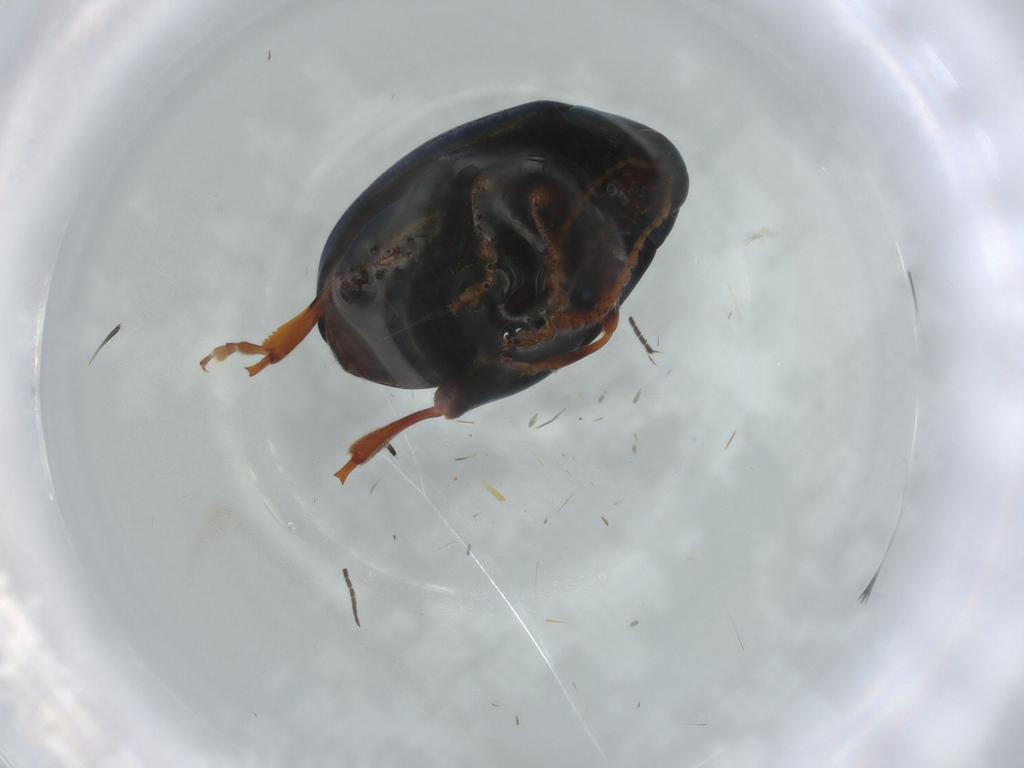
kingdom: Animalia
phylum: Arthropoda
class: Insecta
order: Coleoptera
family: Chrysomelidae
